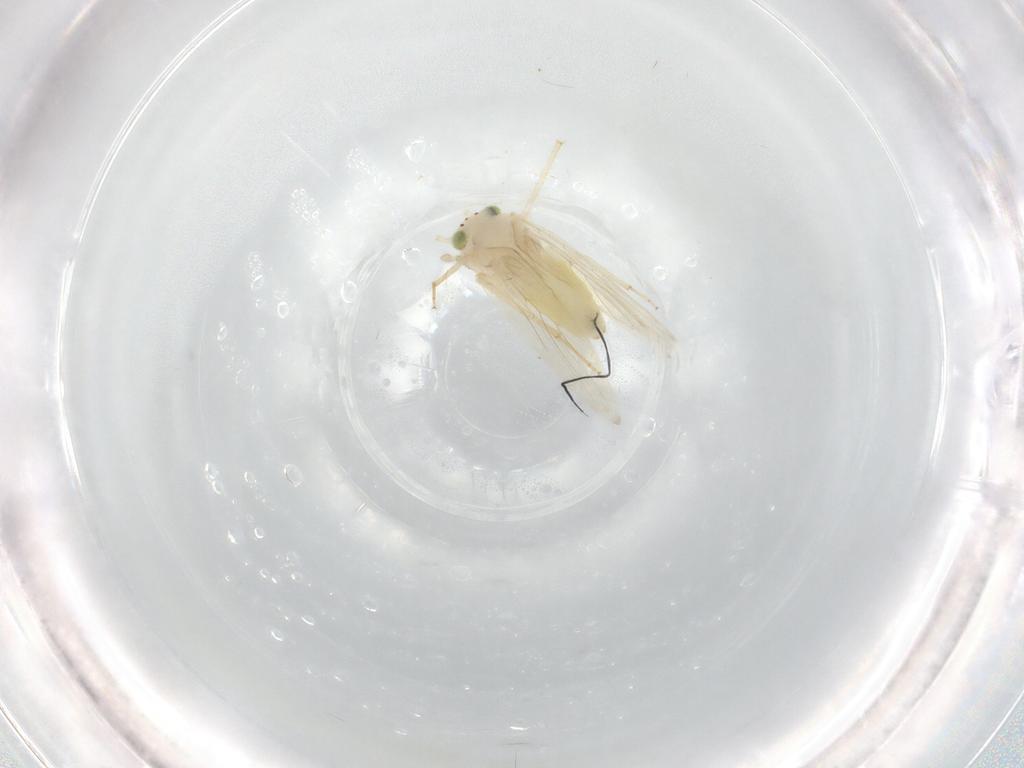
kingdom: Animalia
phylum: Arthropoda
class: Insecta
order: Psocodea
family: Lepidopsocidae
